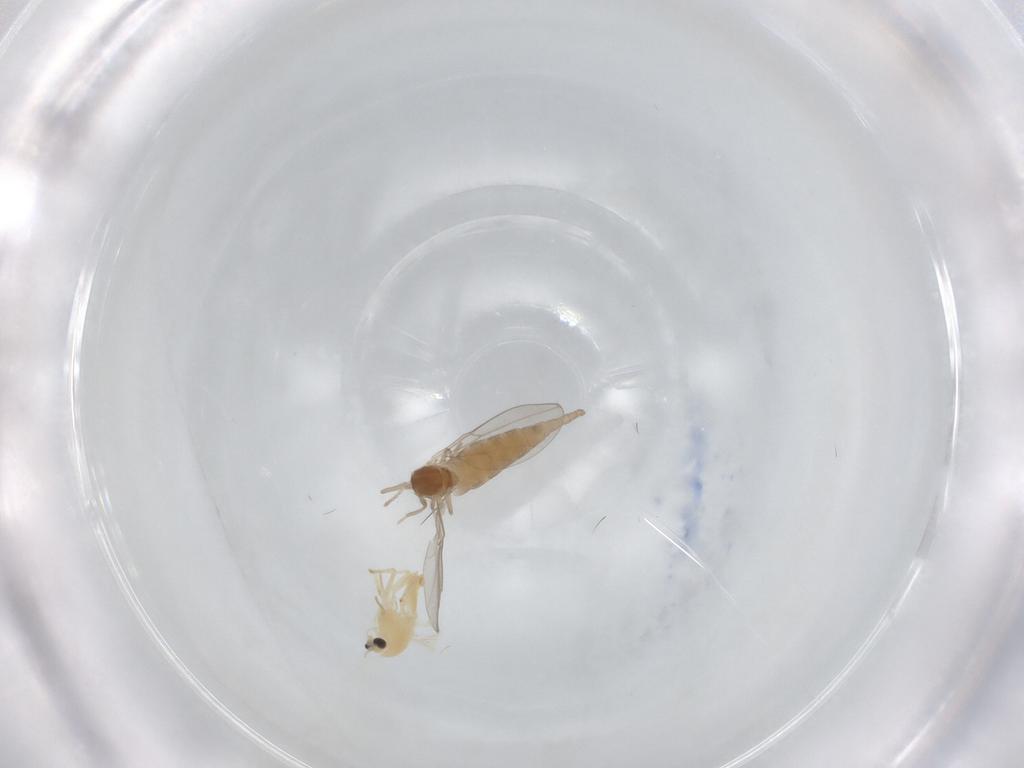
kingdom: Animalia
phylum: Arthropoda
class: Insecta
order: Diptera
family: Chironomidae
